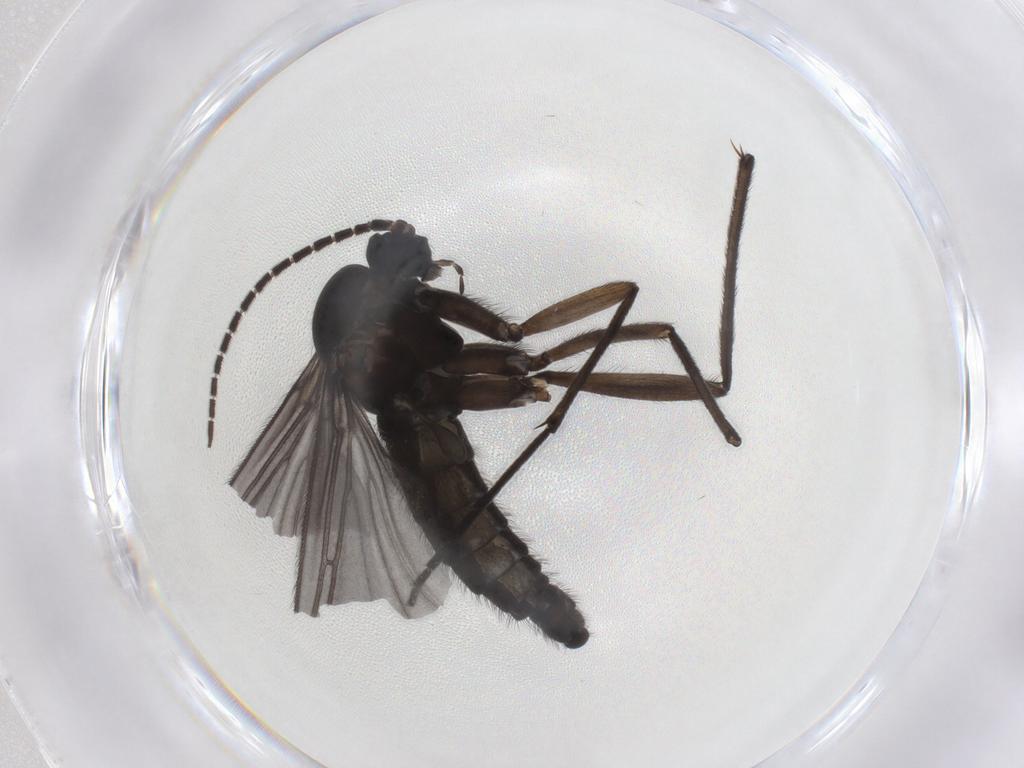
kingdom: Animalia
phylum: Arthropoda
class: Insecta
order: Diptera
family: Sciaridae
